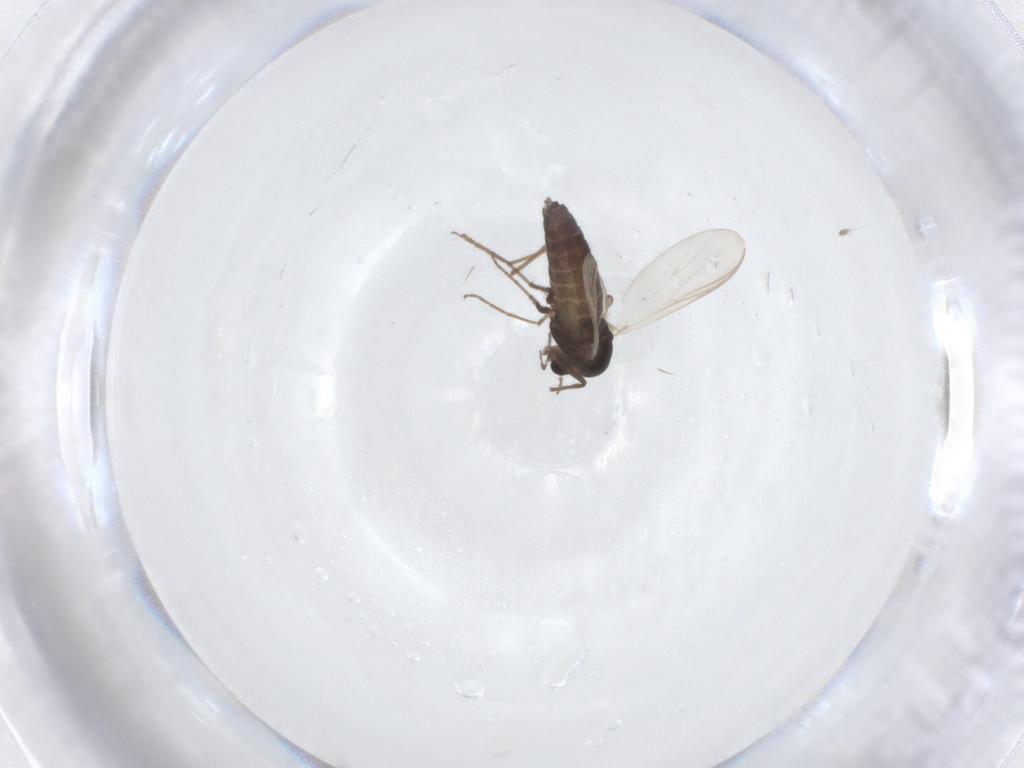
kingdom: Animalia
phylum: Arthropoda
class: Insecta
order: Diptera
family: Chironomidae
